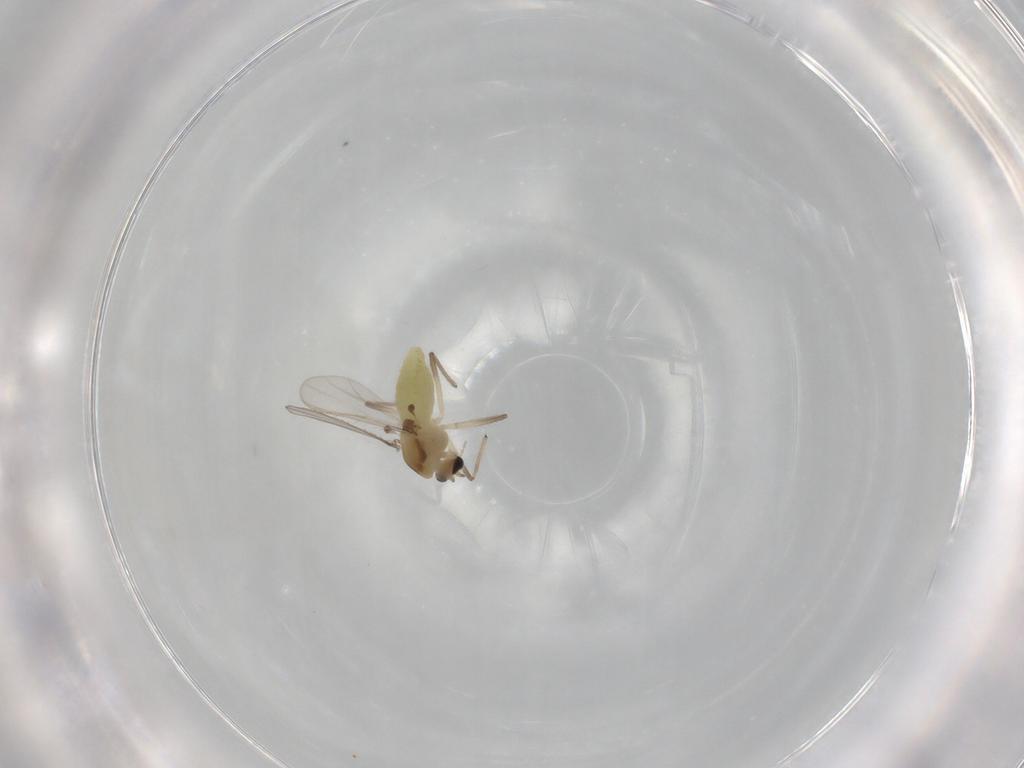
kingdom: Animalia
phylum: Arthropoda
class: Insecta
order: Diptera
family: Chironomidae
